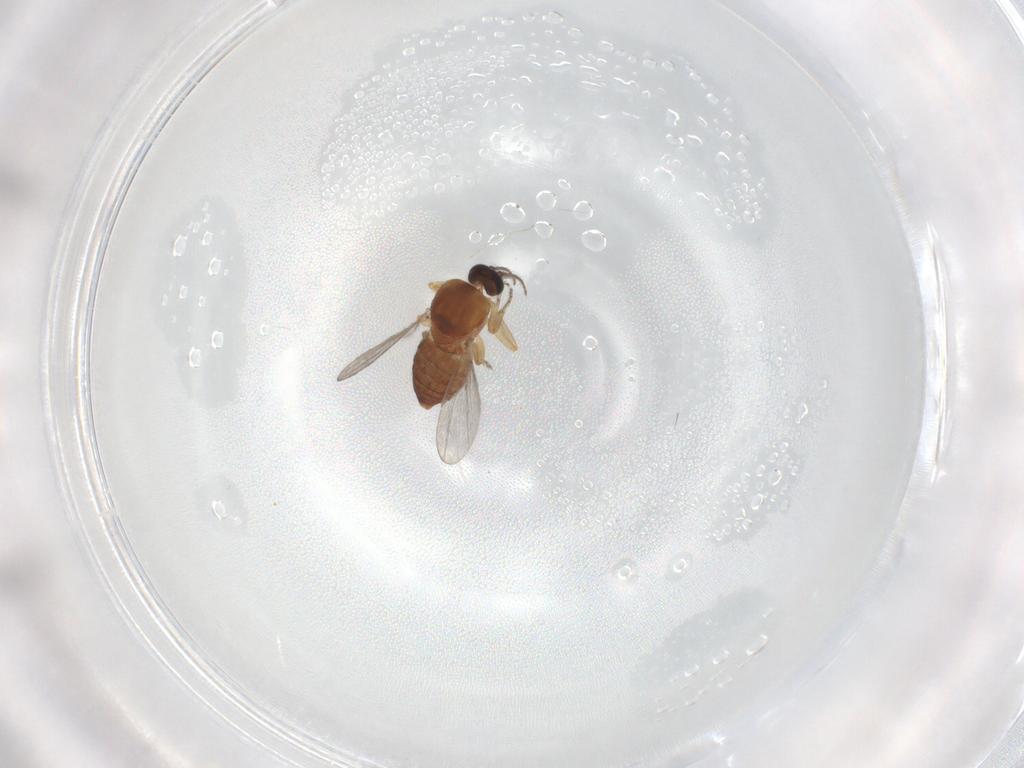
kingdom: Animalia
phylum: Arthropoda
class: Insecta
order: Diptera
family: Ceratopogonidae
